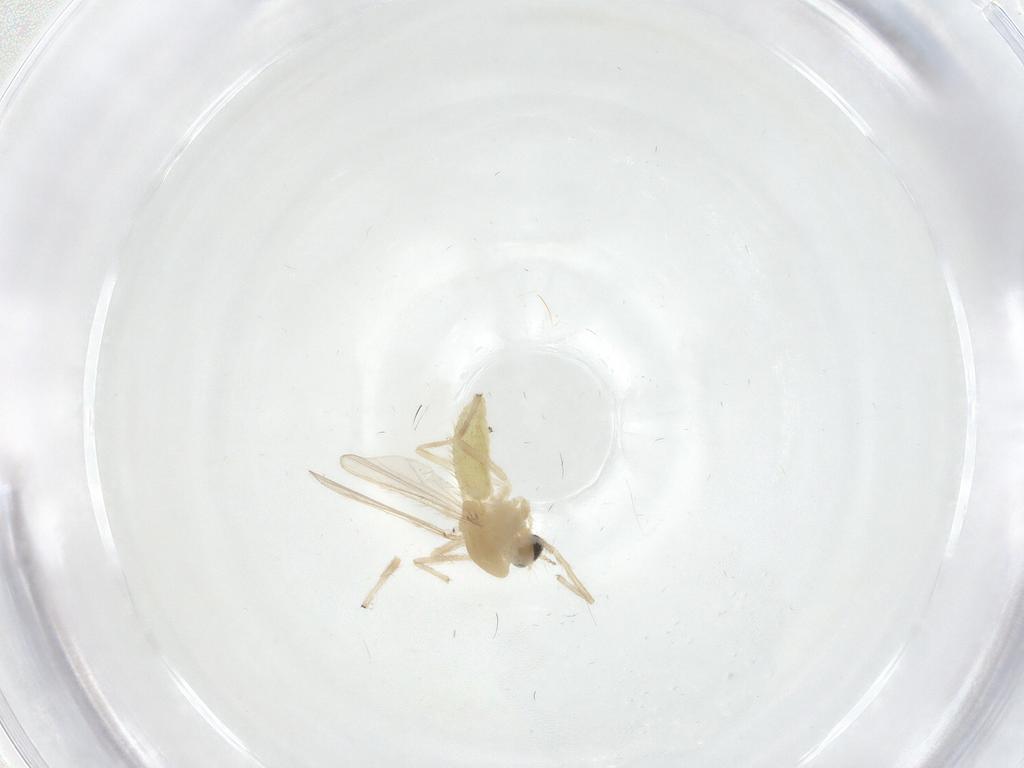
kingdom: Animalia
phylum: Arthropoda
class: Insecta
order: Diptera
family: Chironomidae
